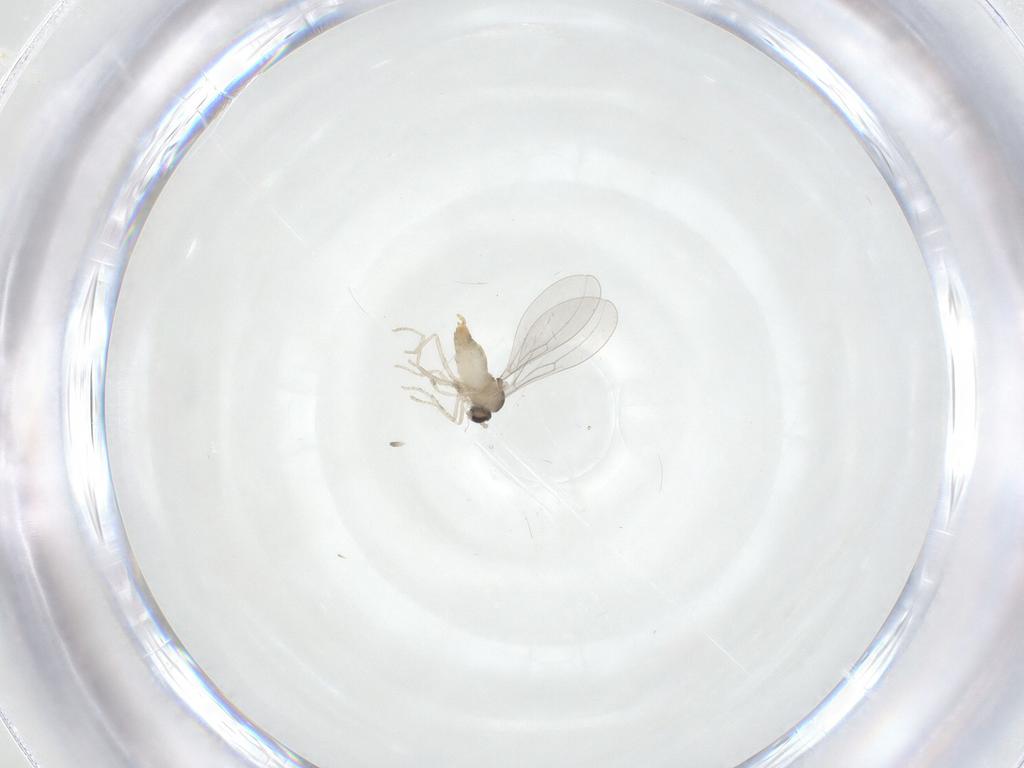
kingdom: Animalia
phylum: Arthropoda
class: Insecta
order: Diptera
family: Cecidomyiidae
